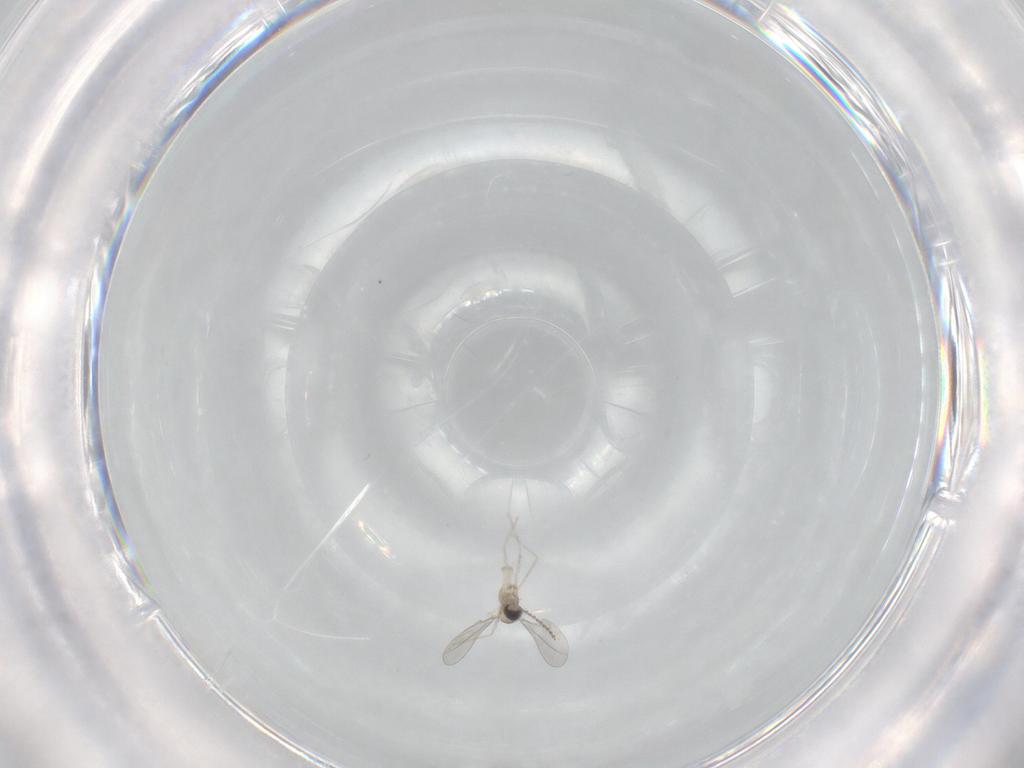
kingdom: Animalia
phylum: Arthropoda
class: Insecta
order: Diptera
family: Cecidomyiidae
